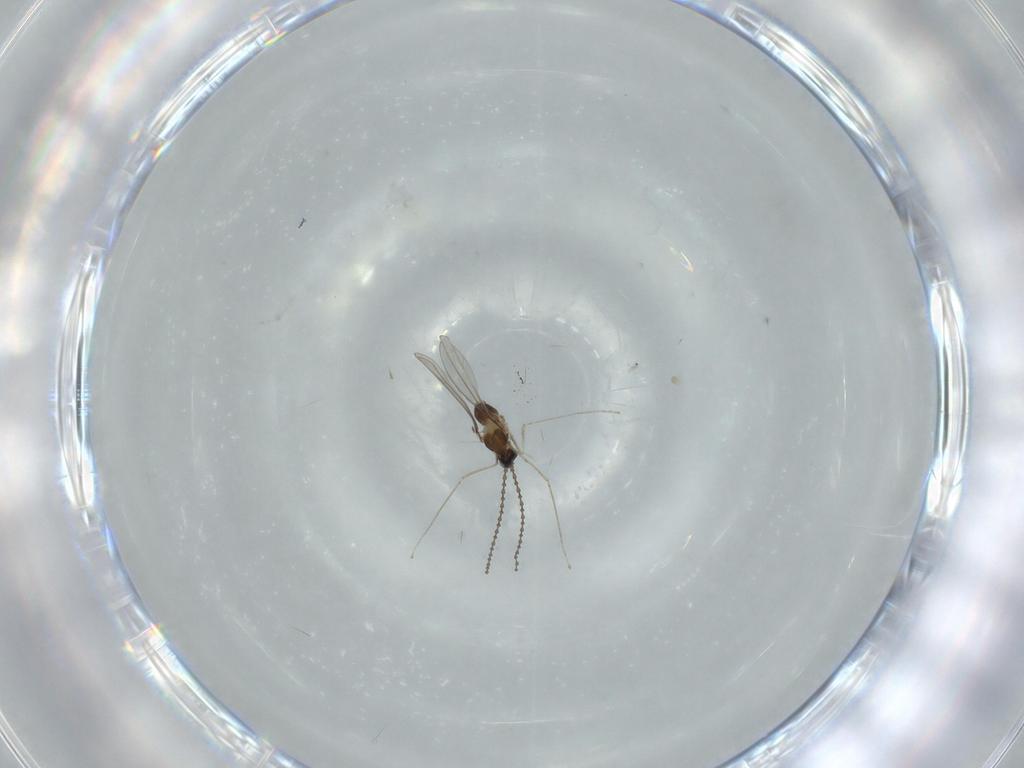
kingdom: Animalia
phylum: Arthropoda
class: Insecta
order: Diptera
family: Cecidomyiidae
